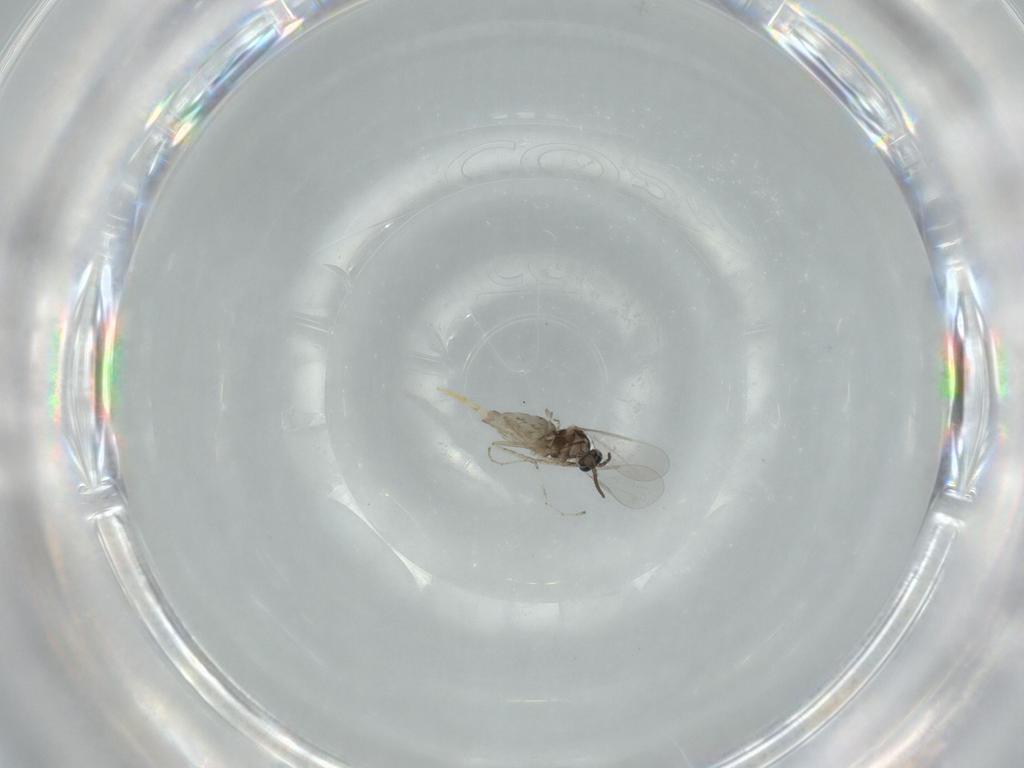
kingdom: Animalia
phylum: Arthropoda
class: Insecta
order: Diptera
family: Cecidomyiidae
